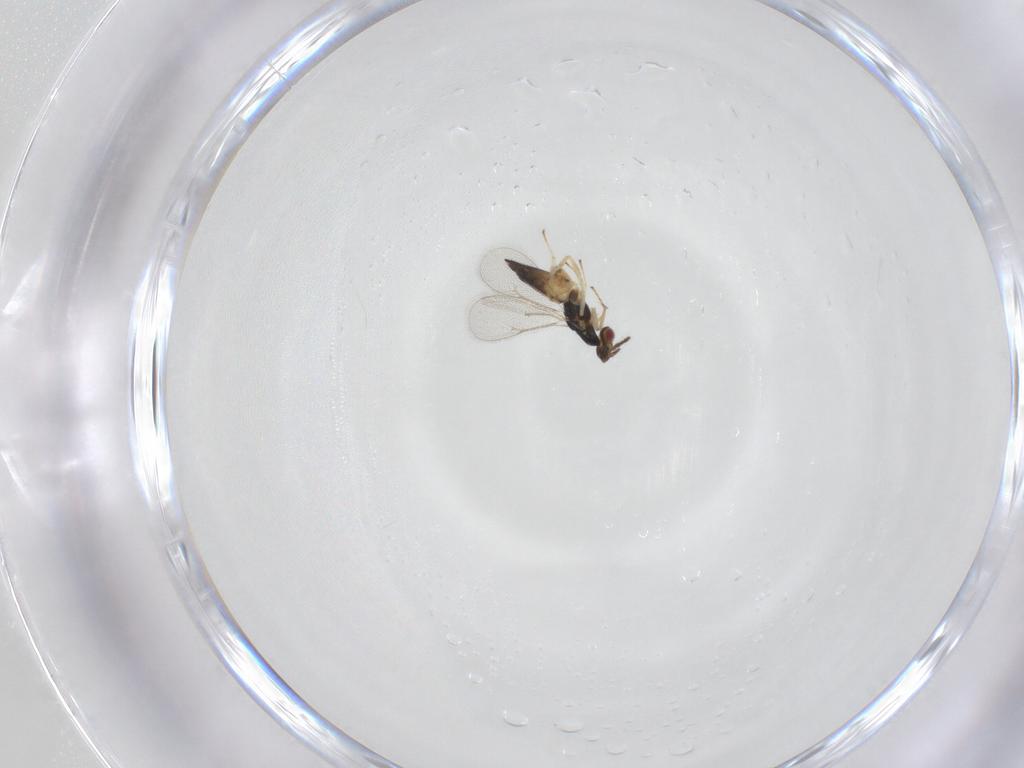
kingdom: Animalia
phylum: Arthropoda
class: Insecta
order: Hymenoptera
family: Eulophidae
